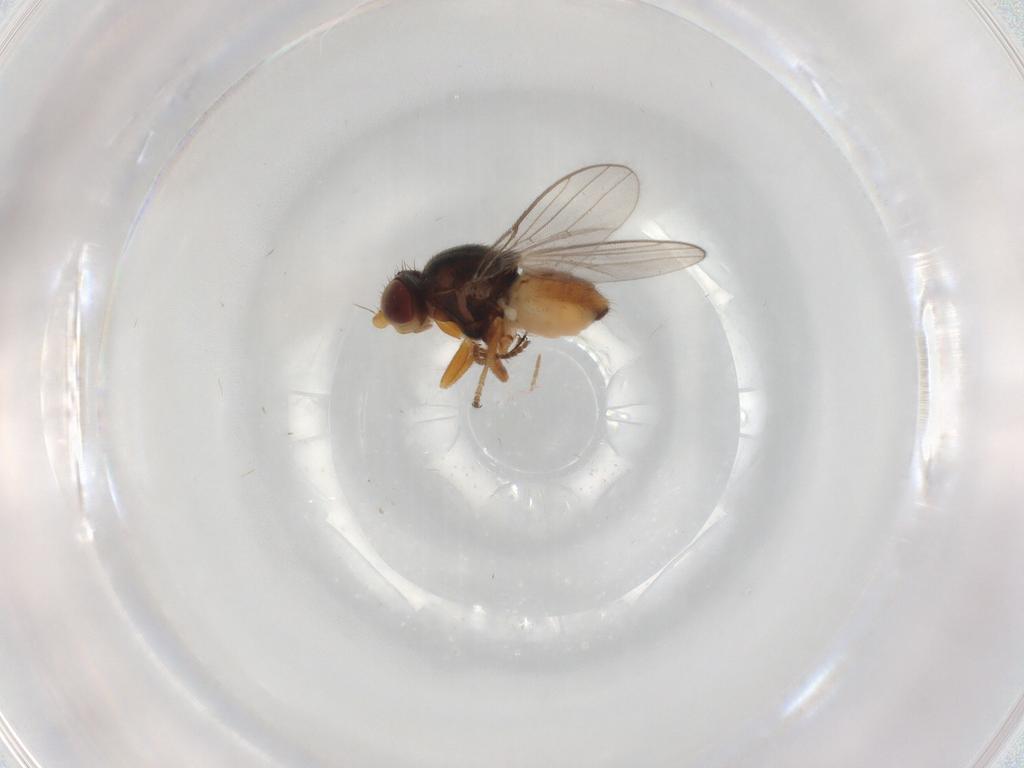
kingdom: Animalia
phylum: Arthropoda
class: Insecta
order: Diptera
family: Chloropidae
